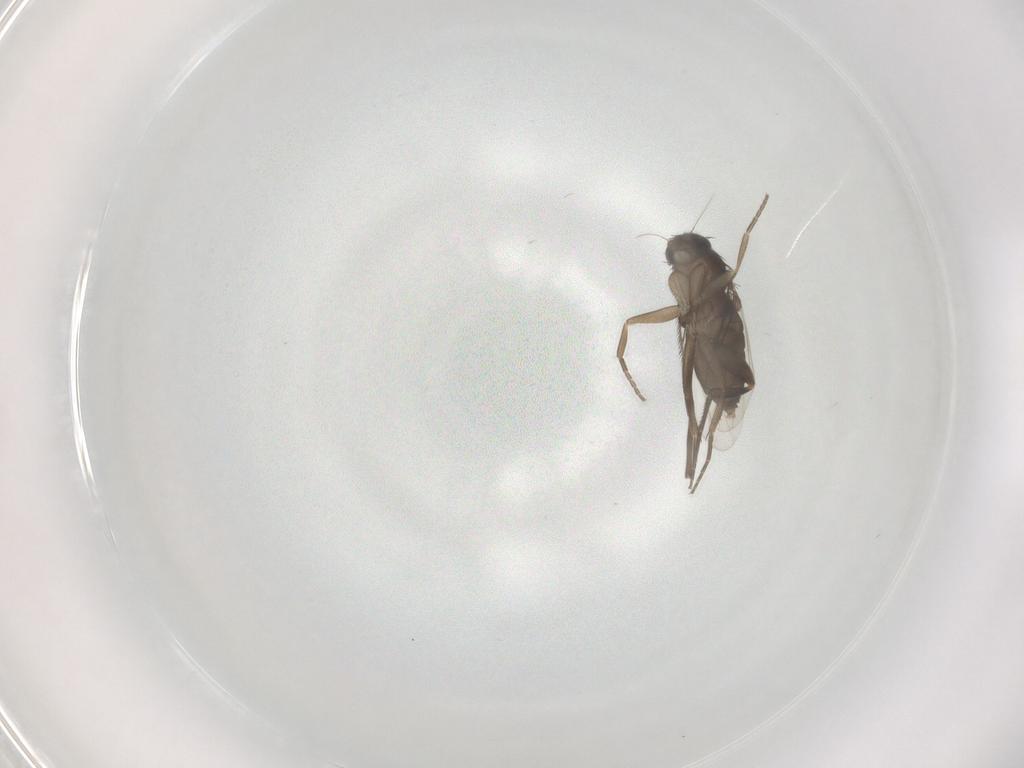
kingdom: Animalia
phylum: Arthropoda
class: Insecta
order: Diptera
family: Phoridae
